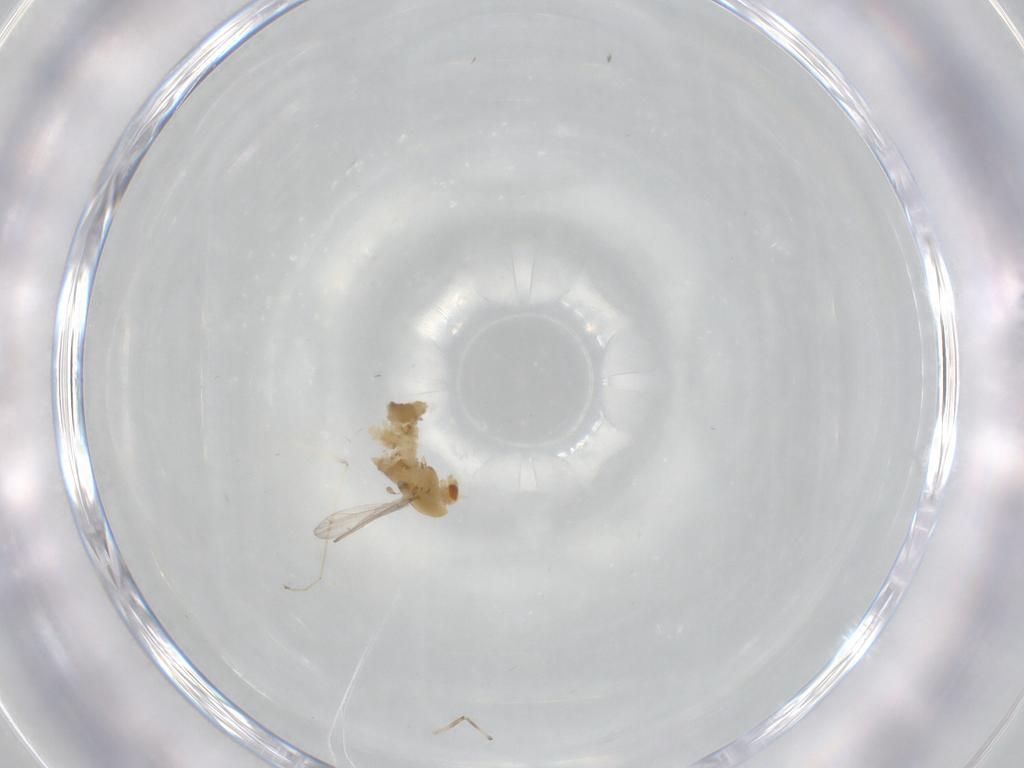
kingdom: Animalia
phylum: Arthropoda
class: Insecta
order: Diptera
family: Chironomidae
